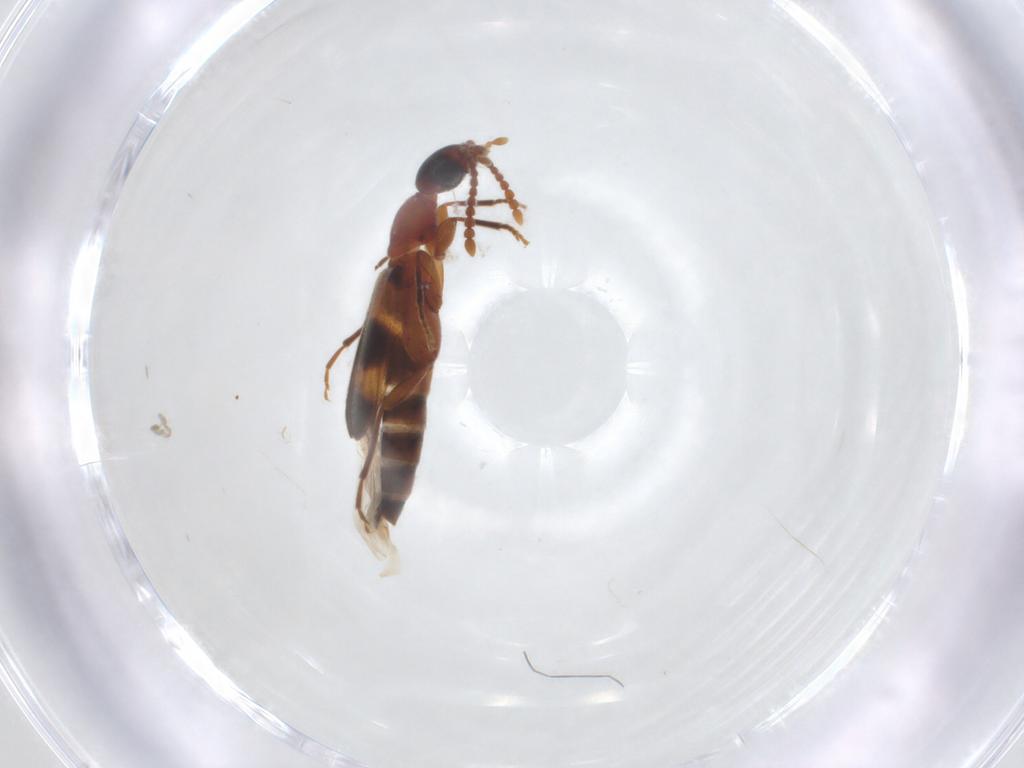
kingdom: Animalia
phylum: Arthropoda
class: Insecta
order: Coleoptera
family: Anthicidae
